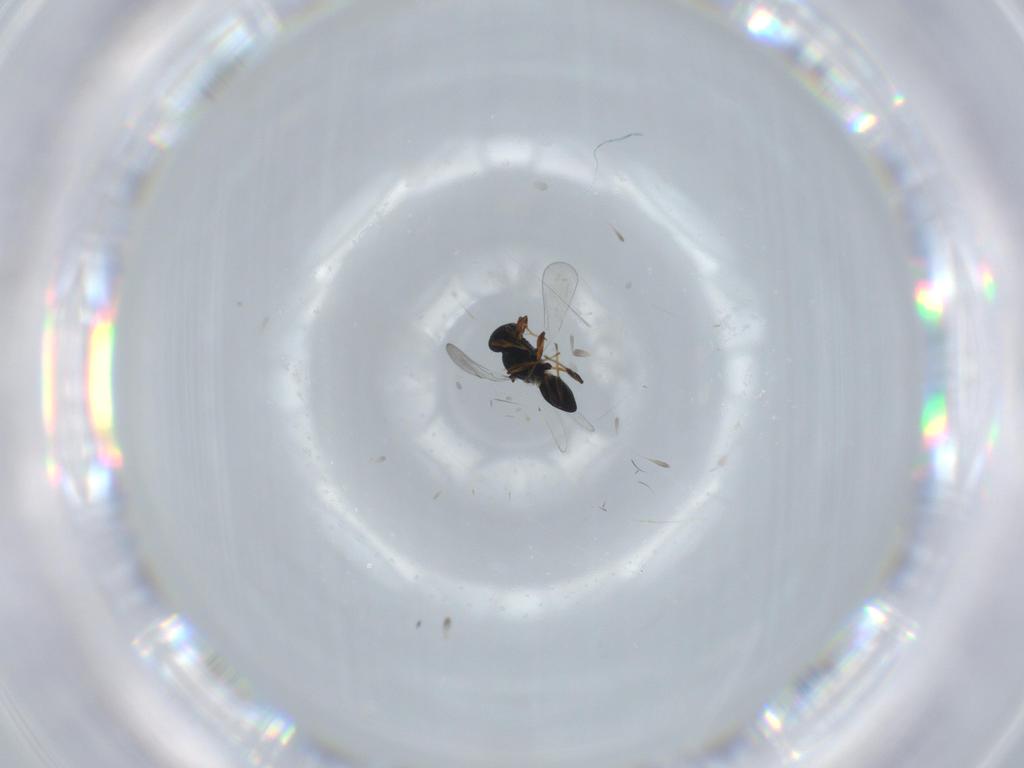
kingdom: Animalia
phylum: Arthropoda
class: Insecta
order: Hymenoptera
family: Platygastridae
